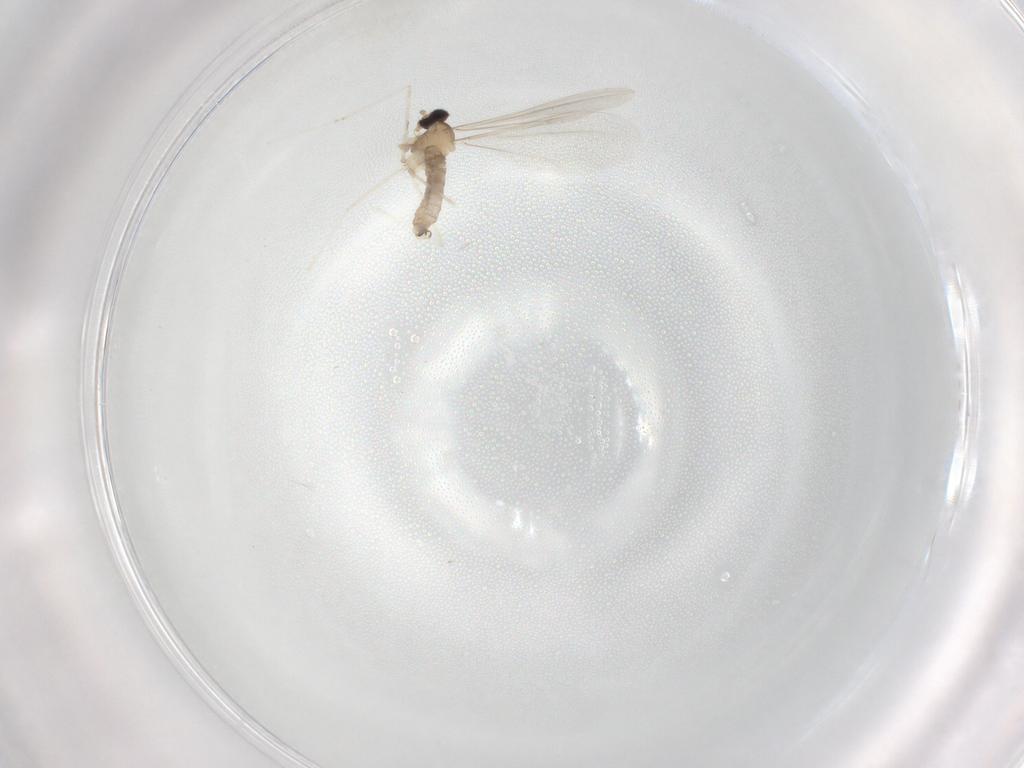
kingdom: Animalia
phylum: Arthropoda
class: Insecta
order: Diptera
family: Cecidomyiidae
